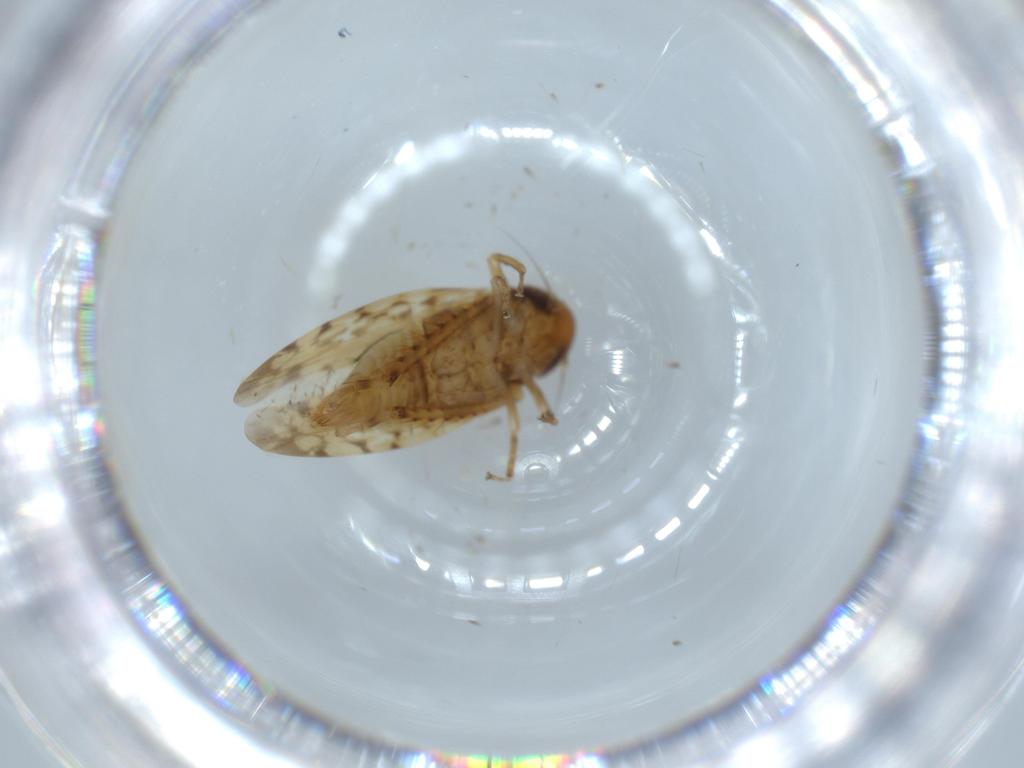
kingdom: Animalia
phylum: Arthropoda
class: Insecta
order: Hemiptera
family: Cicadellidae
